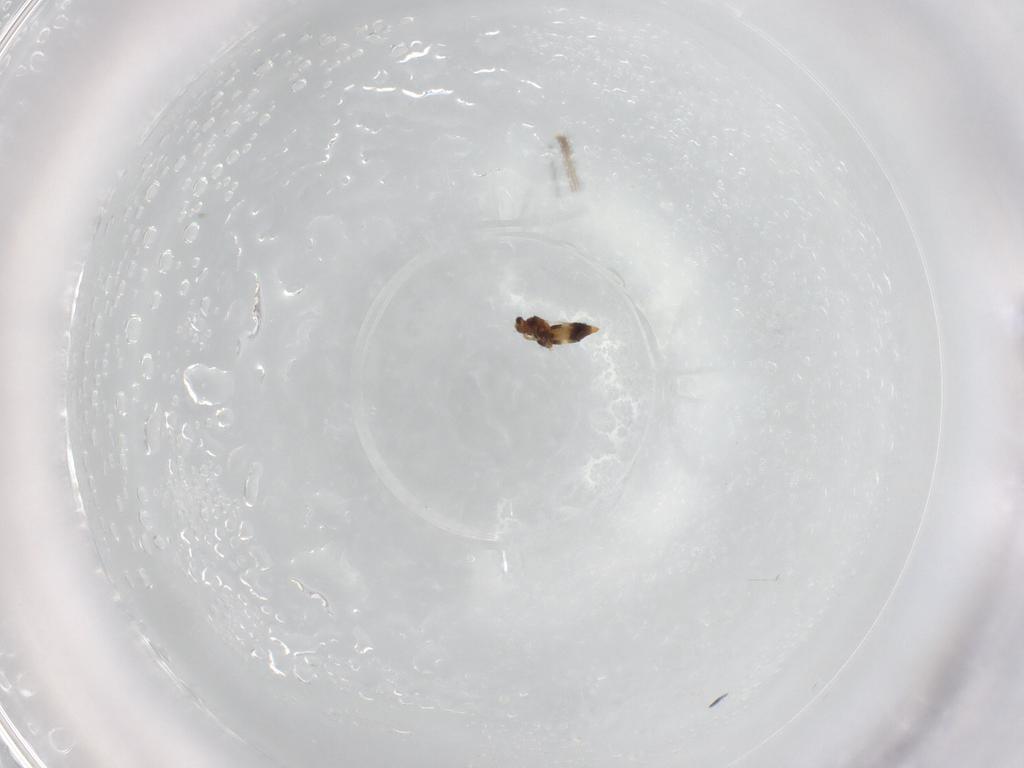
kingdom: Animalia
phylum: Arthropoda
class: Insecta
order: Thysanoptera
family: Thripidae
